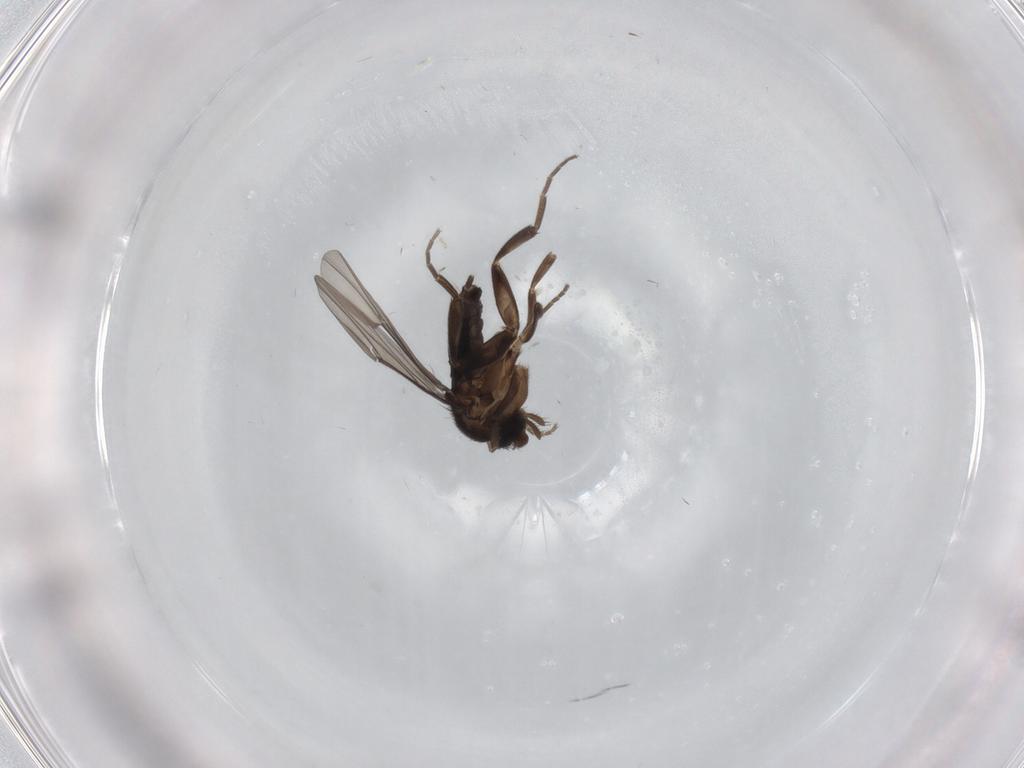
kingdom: Animalia
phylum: Arthropoda
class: Insecta
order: Diptera
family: Phoridae
